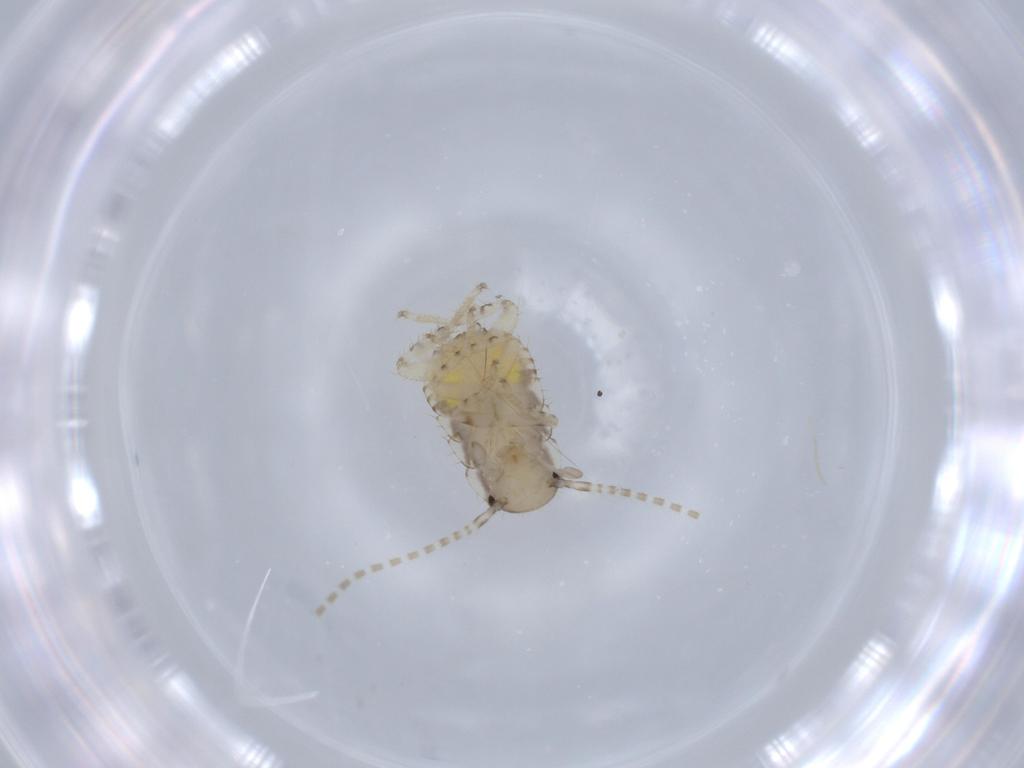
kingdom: Animalia
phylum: Arthropoda
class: Insecta
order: Blattodea
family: Ectobiidae
